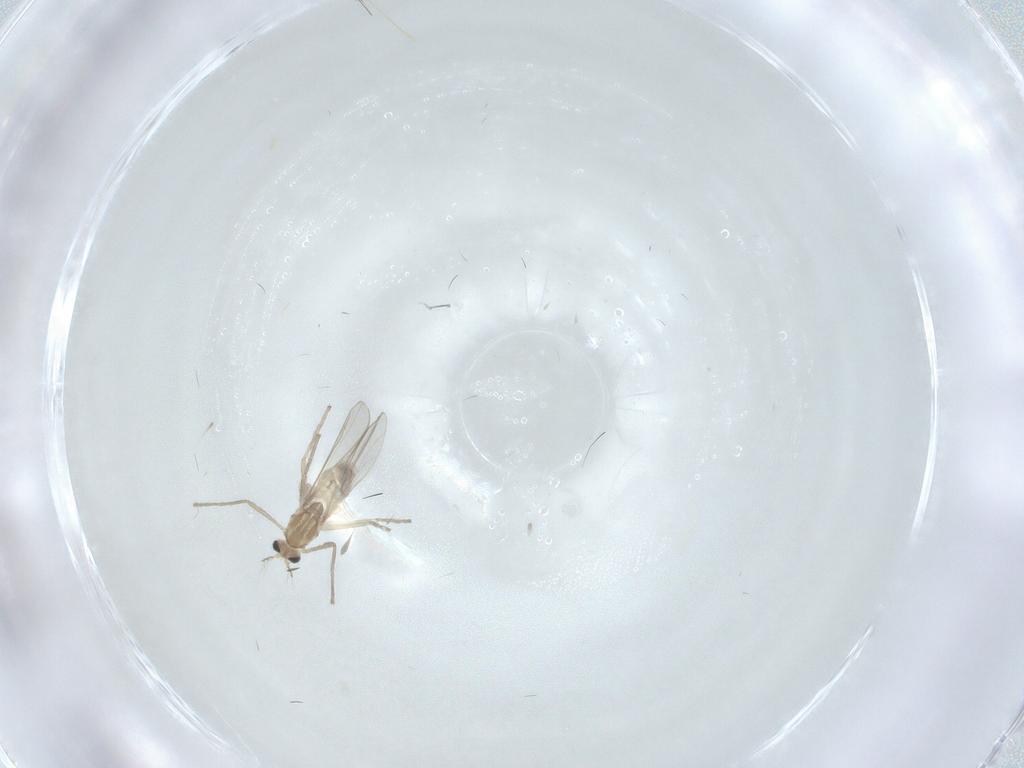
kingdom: Animalia
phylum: Arthropoda
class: Insecta
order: Diptera
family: Chironomidae
